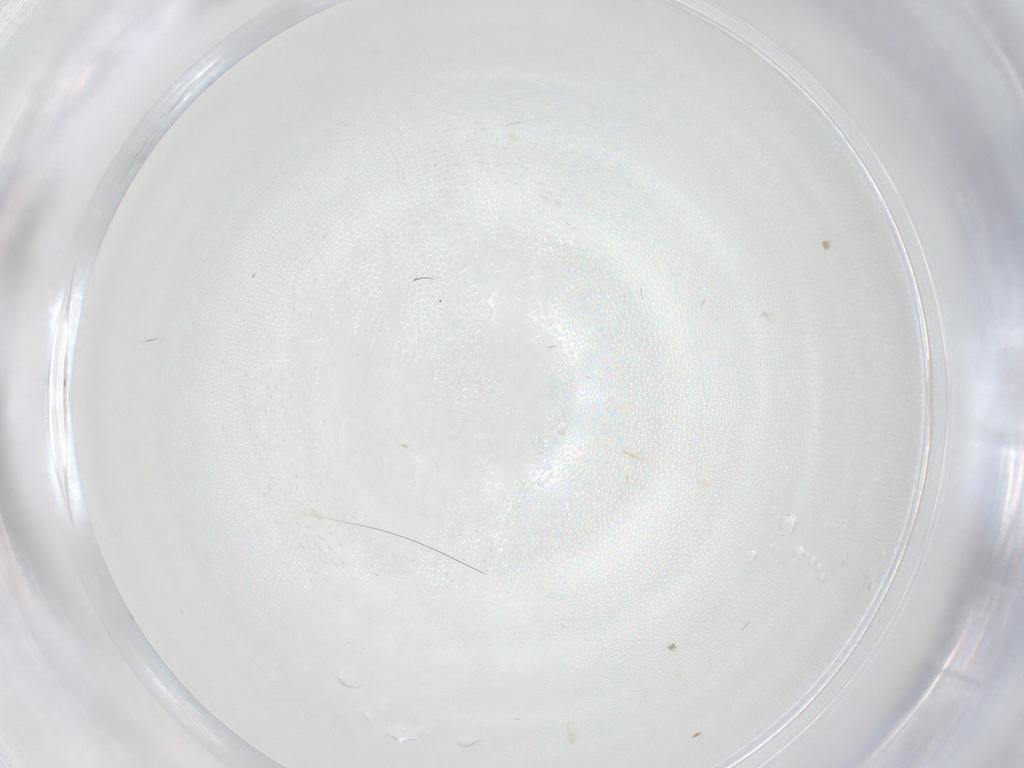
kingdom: Animalia
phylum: Arthropoda
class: Insecta
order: Diptera
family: Cecidomyiidae
